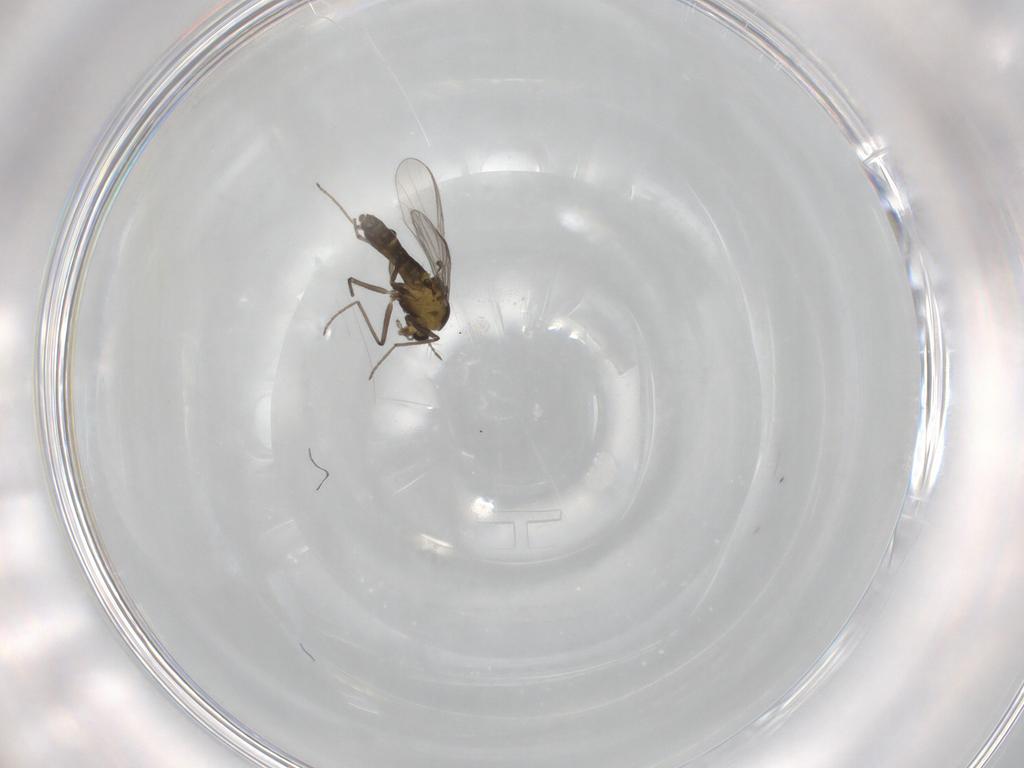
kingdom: Animalia
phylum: Arthropoda
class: Insecta
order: Diptera
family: Chironomidae
